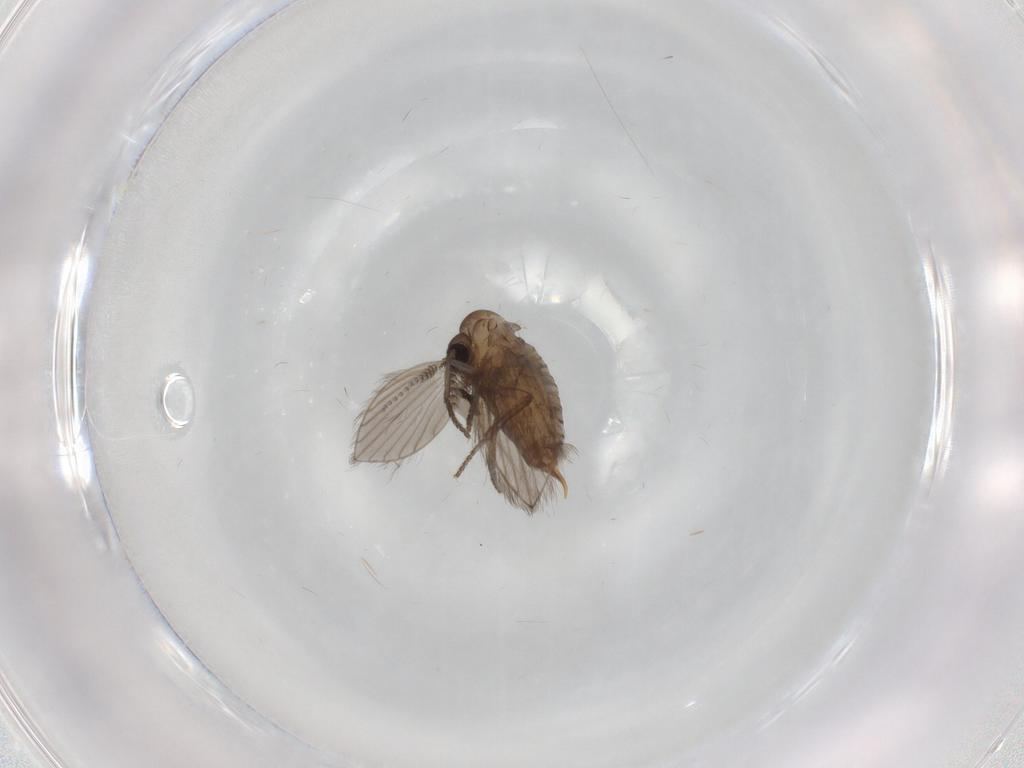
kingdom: Animalia
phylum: Arthropoda
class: Insecta
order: Diptera
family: Psychodidae
